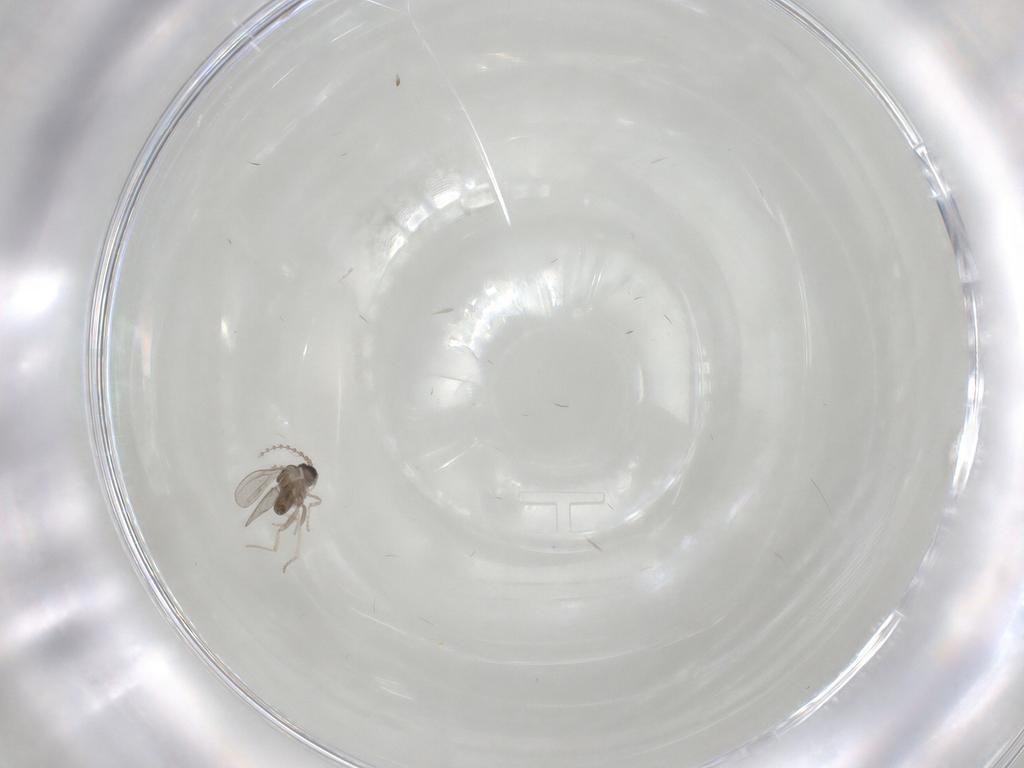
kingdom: Animalia
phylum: Arthropoda
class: Insecta
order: Diptera
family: Cecidomyiidae
